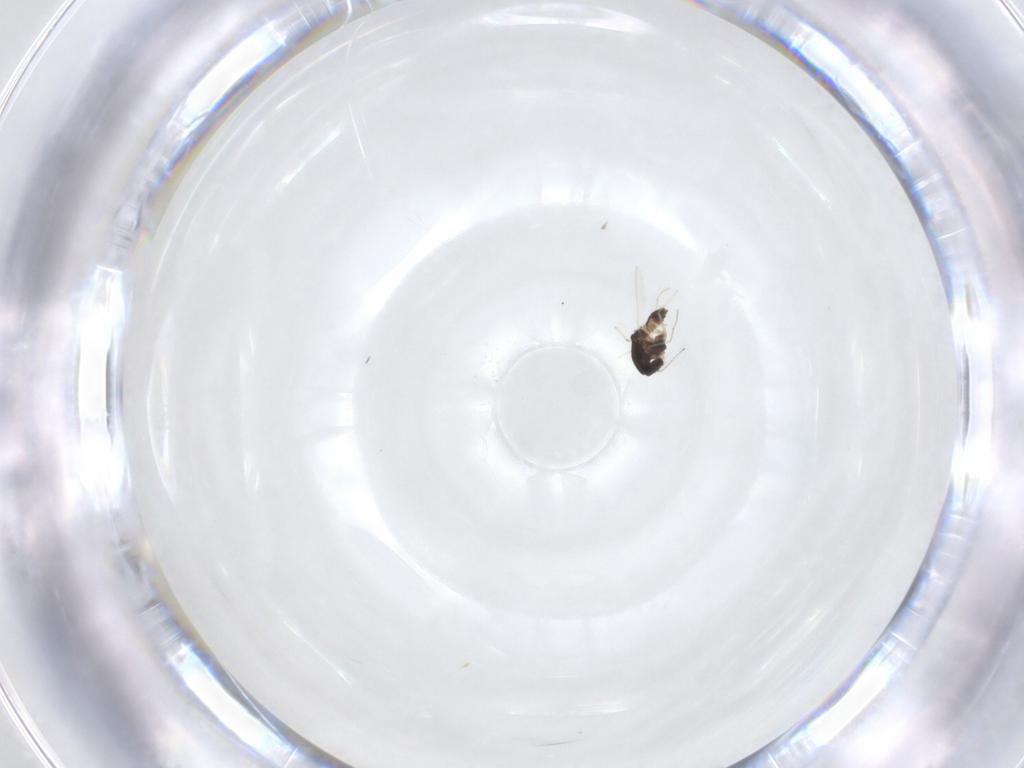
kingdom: Animalia
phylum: Arthropoda
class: Insecta
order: Diptera
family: Chironomidae
